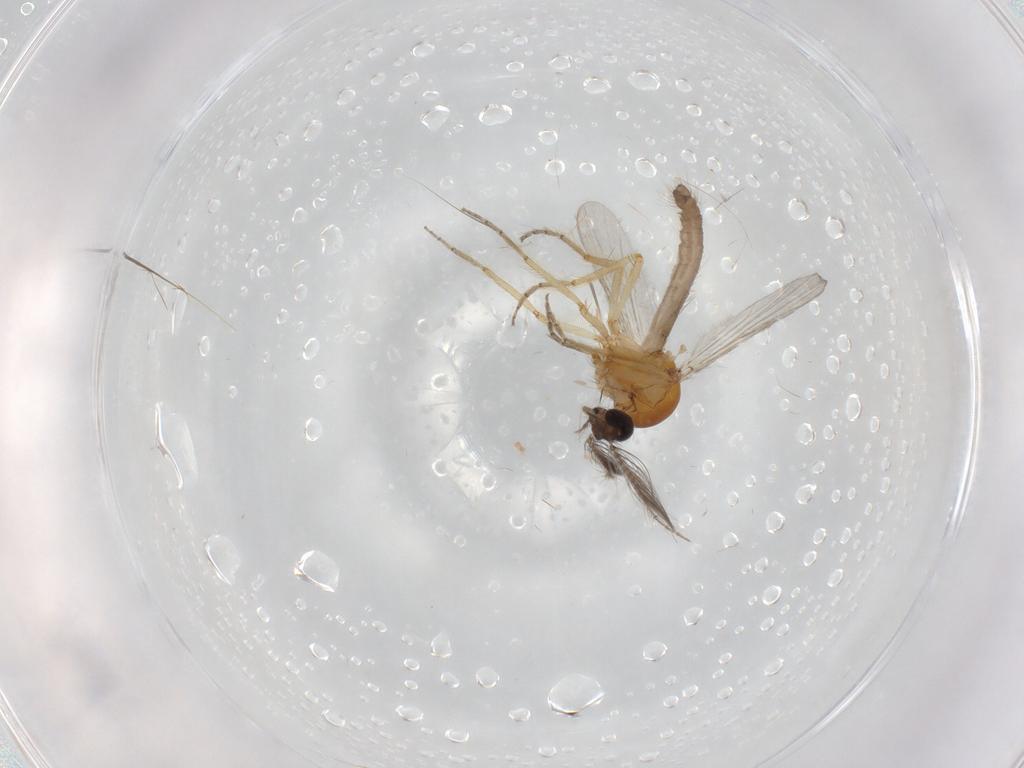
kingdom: Animalia
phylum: Arthropoda
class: Insecta
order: Diptera
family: Ceratopogonidae
